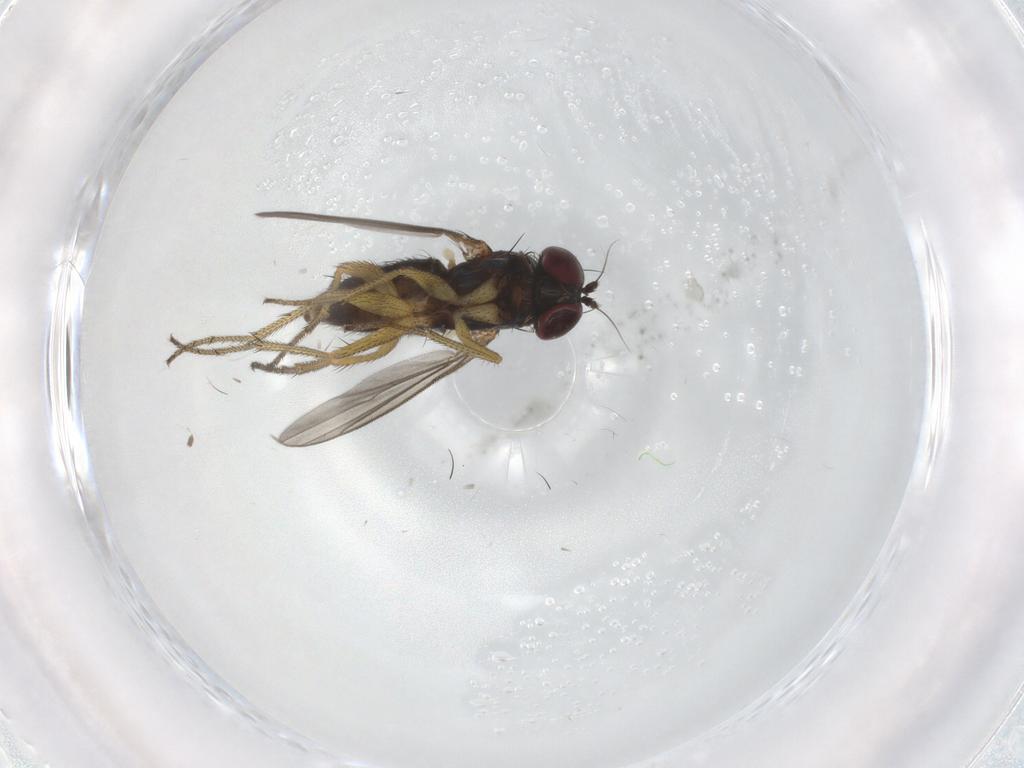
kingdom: Animalia
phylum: Arthropoda
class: Insecta
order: Diptera
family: Dolichopodidae
